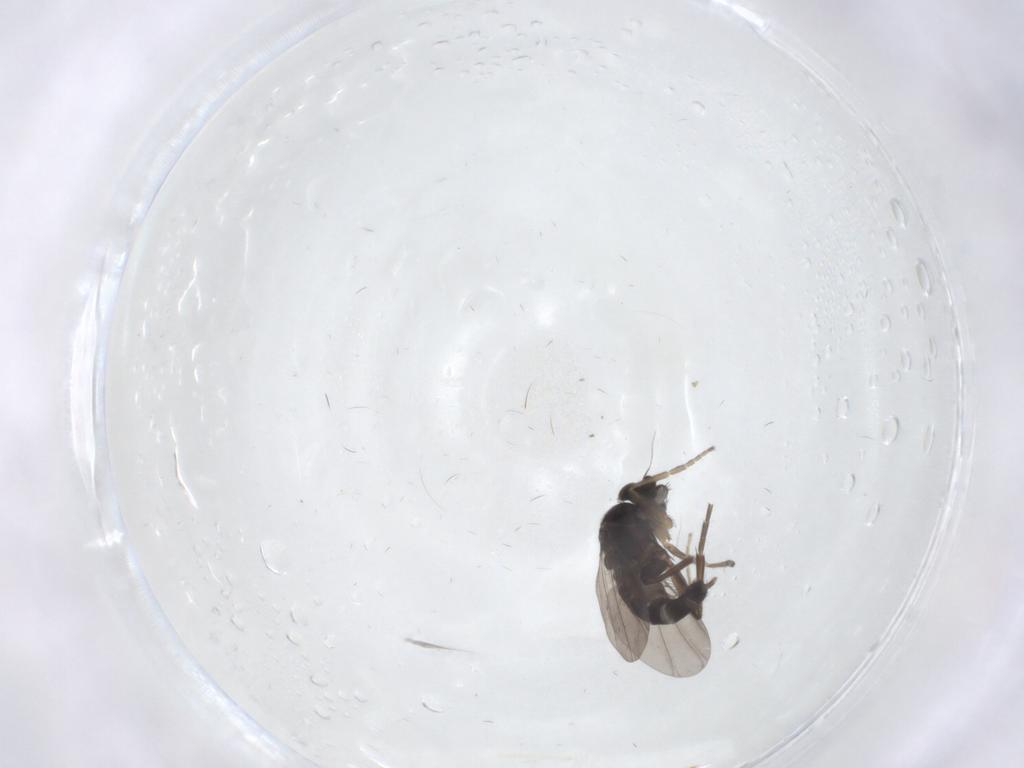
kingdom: Animalia
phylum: Arthropoda
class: Insecta
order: Diptera
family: Phoridae
